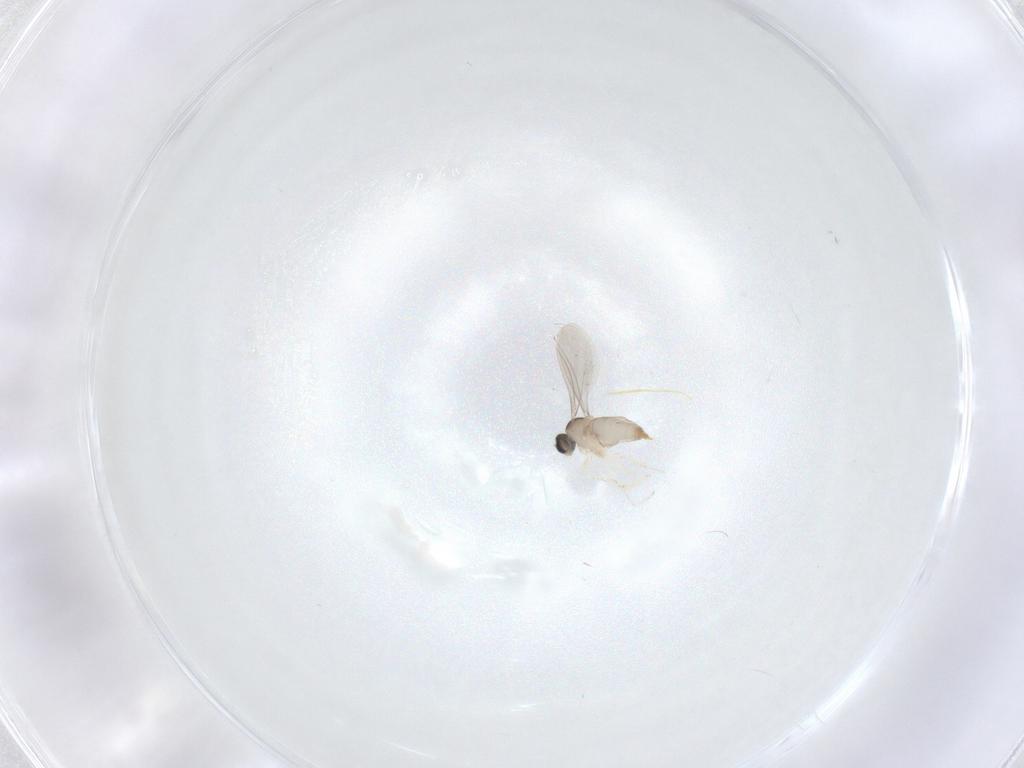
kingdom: Animalia
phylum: Arthropoda
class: Insecta
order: Diptera
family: Cecidomyiidae
